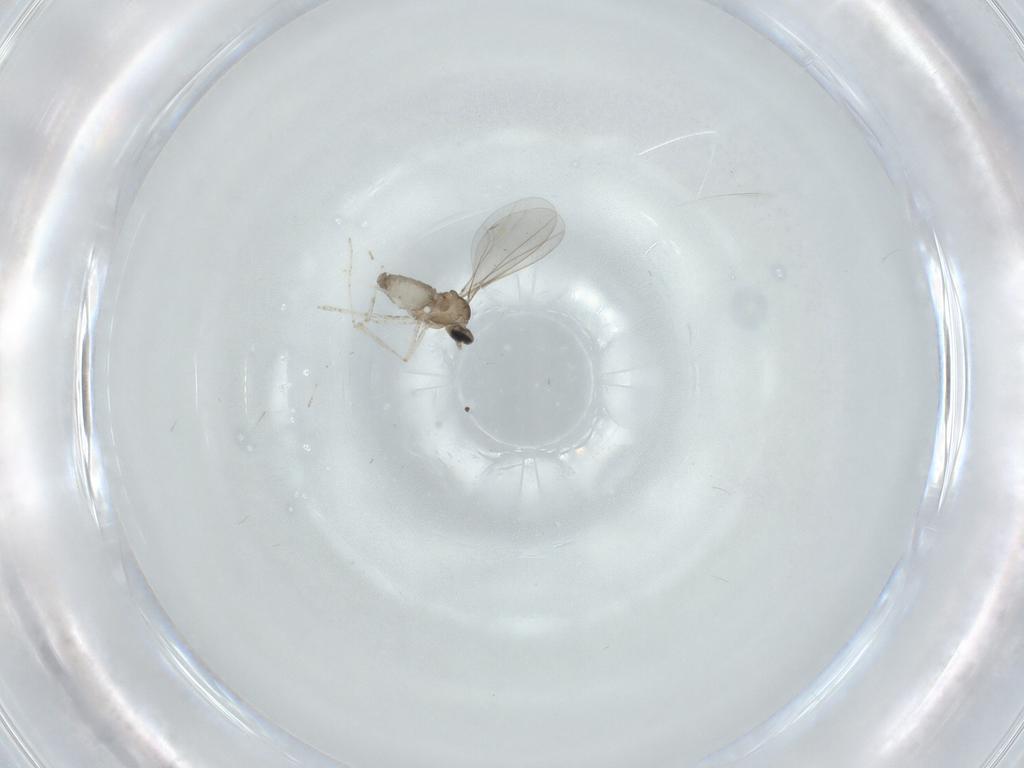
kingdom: Animalia
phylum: Arthropoda
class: Insecta
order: Diptera
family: Cecidomyiidae
